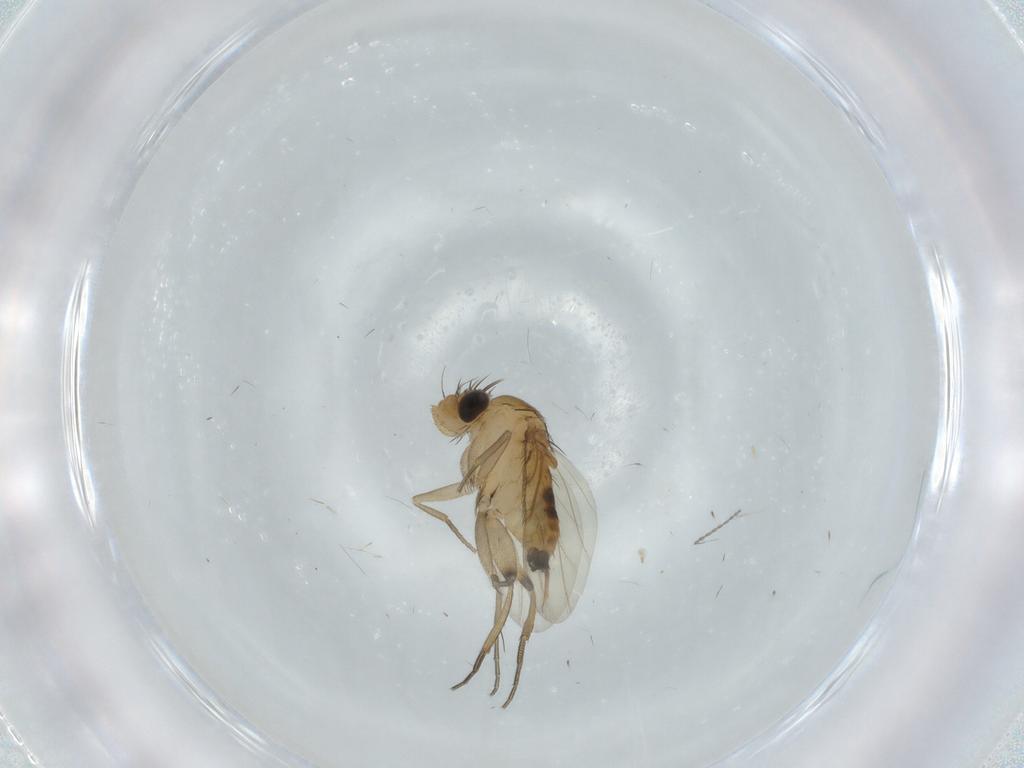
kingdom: Animalia
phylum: Arthropoda
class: Insecta
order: Diptera
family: Phoridae
